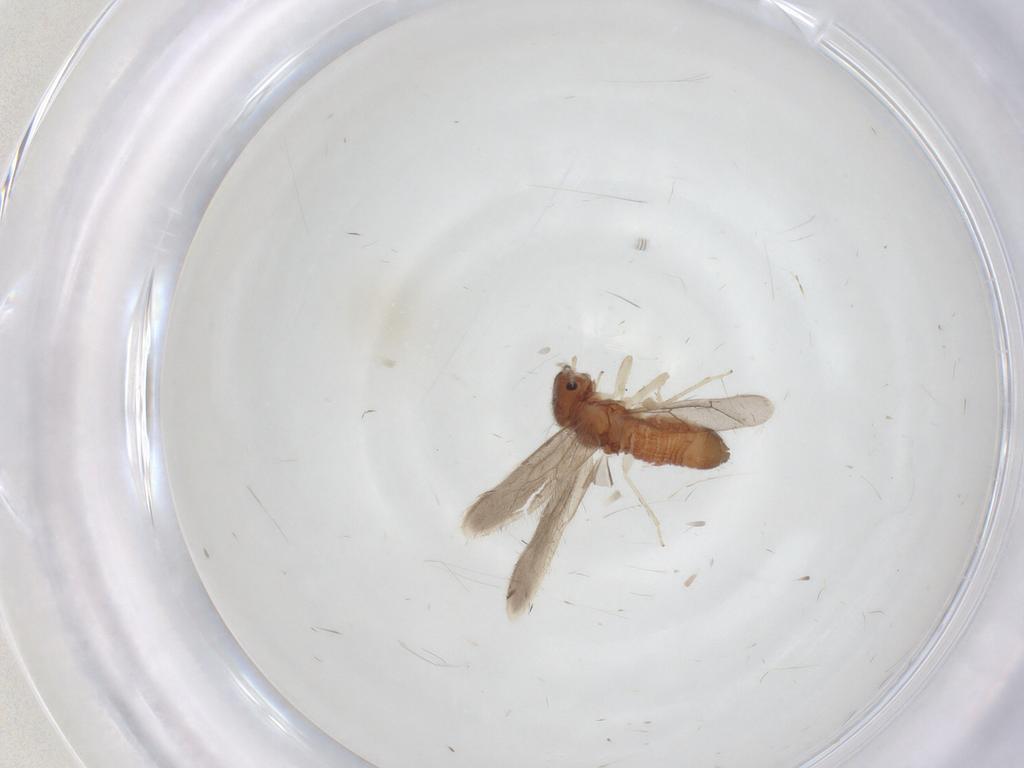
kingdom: Animalia
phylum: Arthropoda
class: Insecta
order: Psocodea
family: Archipsocidae
